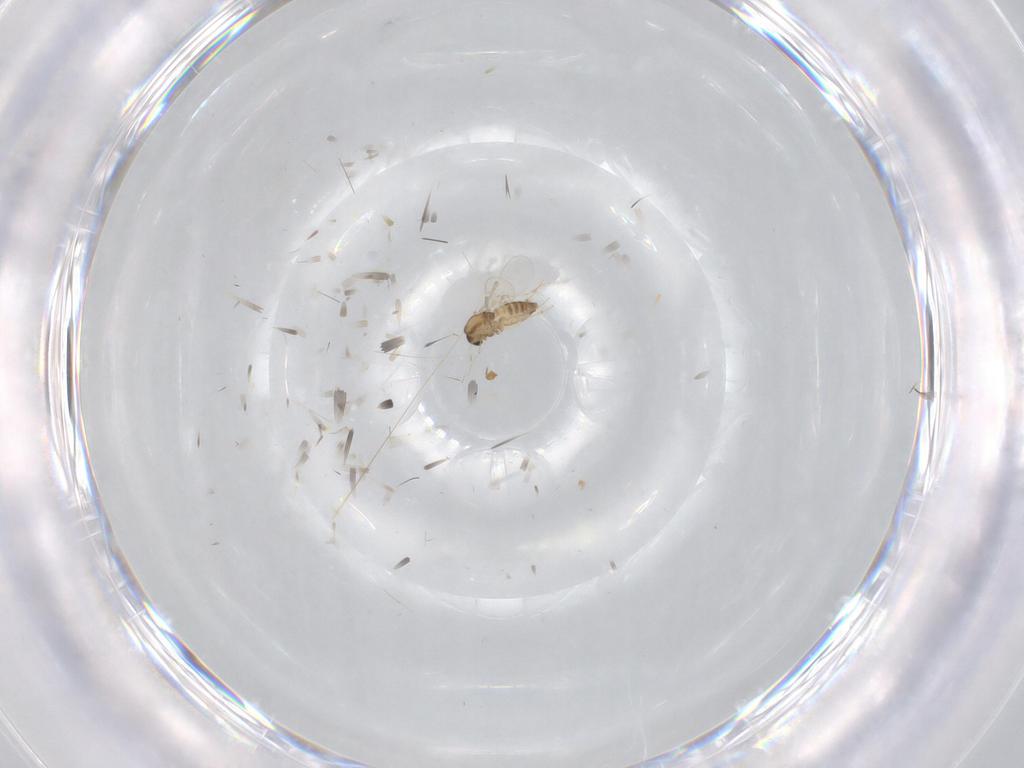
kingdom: Animalia
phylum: Arthropoda
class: Insecta
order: Diptera
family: Chironomidae
